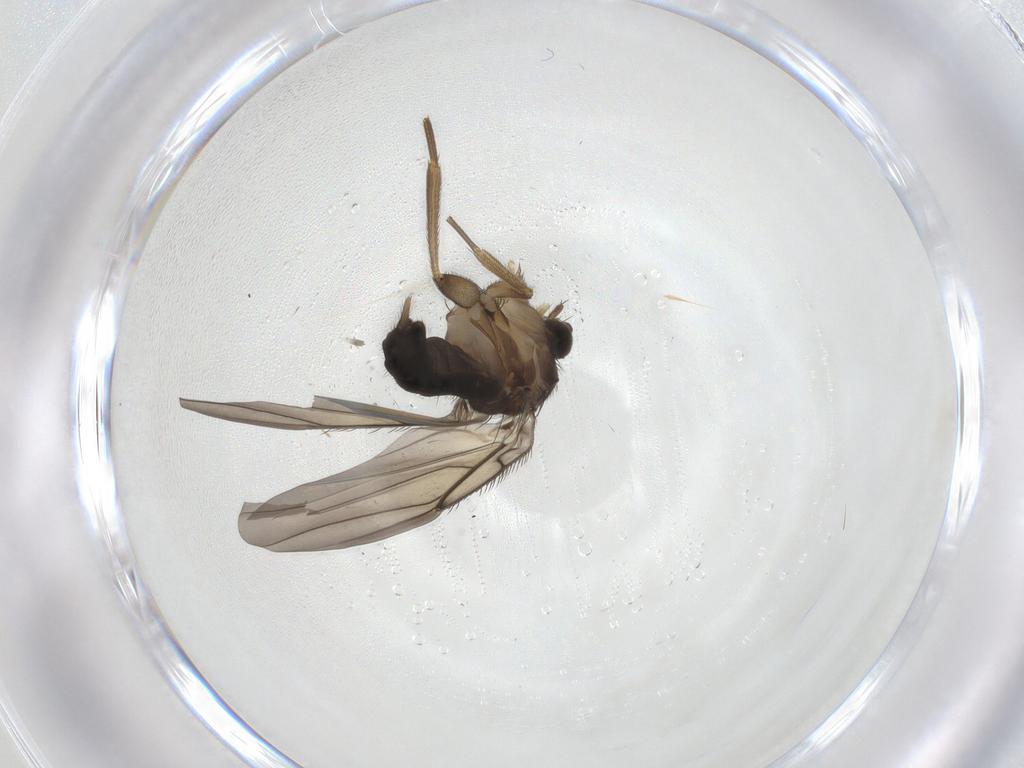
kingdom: Animalia
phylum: Arthropoda
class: Insecta
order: Diptera
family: Phoridae
